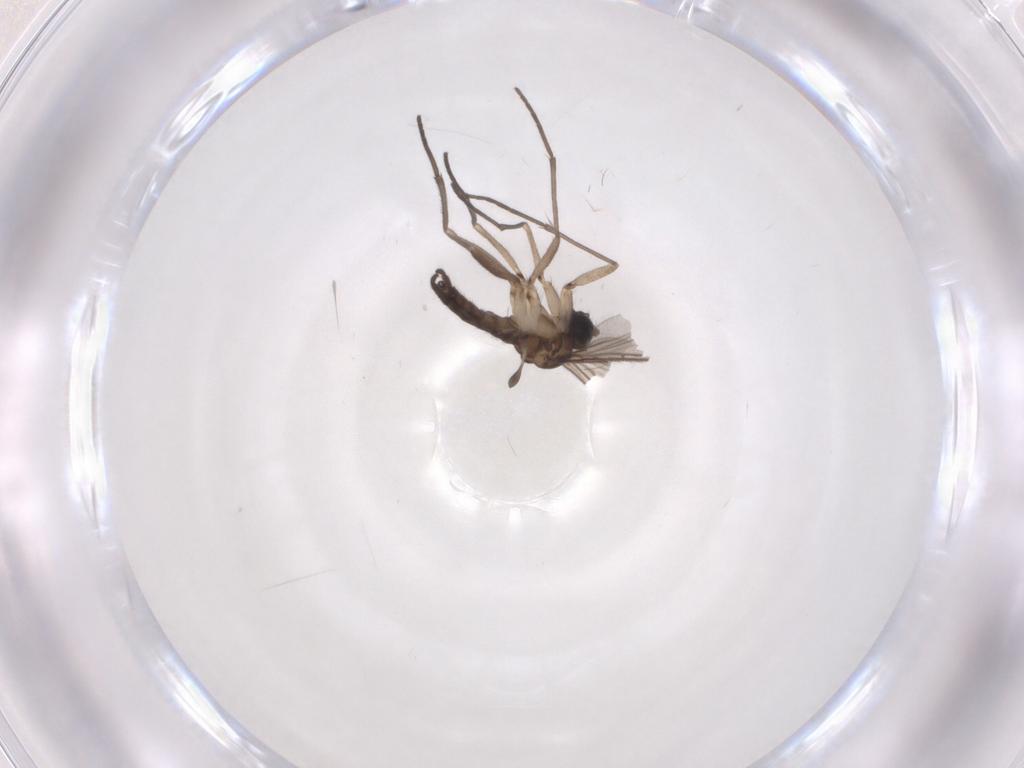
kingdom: Animalia
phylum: Arthropoda
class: Insecta
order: Diptera
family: Sciaridae
